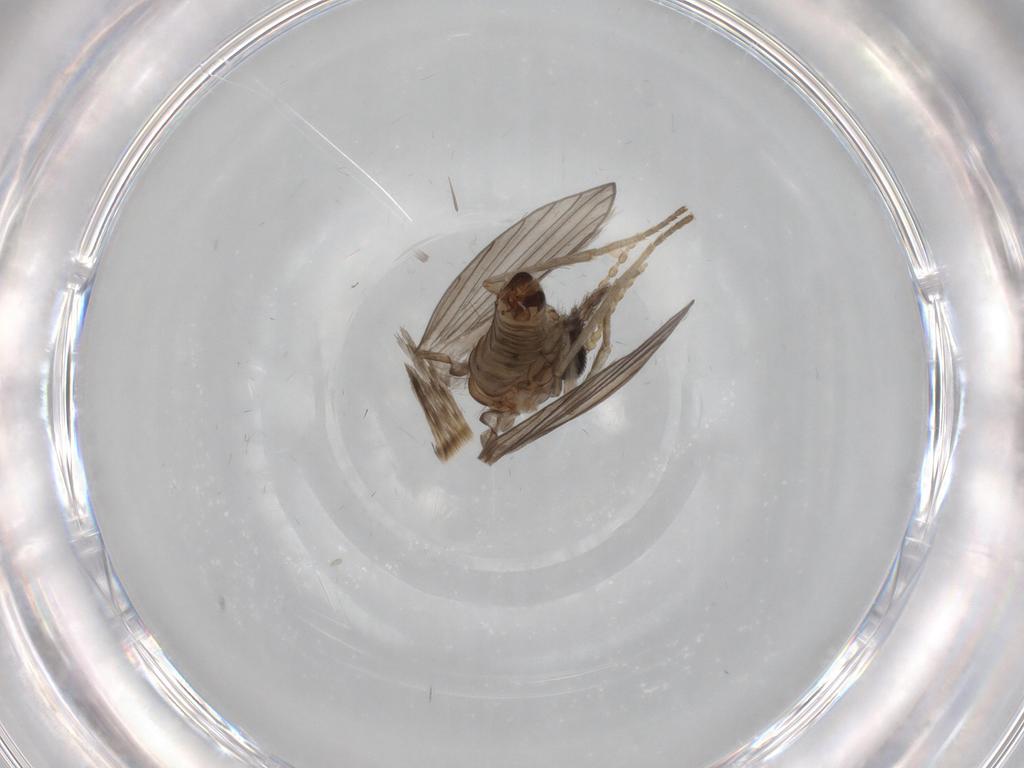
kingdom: Animalia
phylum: Arthropoda
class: Insecta
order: Diptera
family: Phoridae
